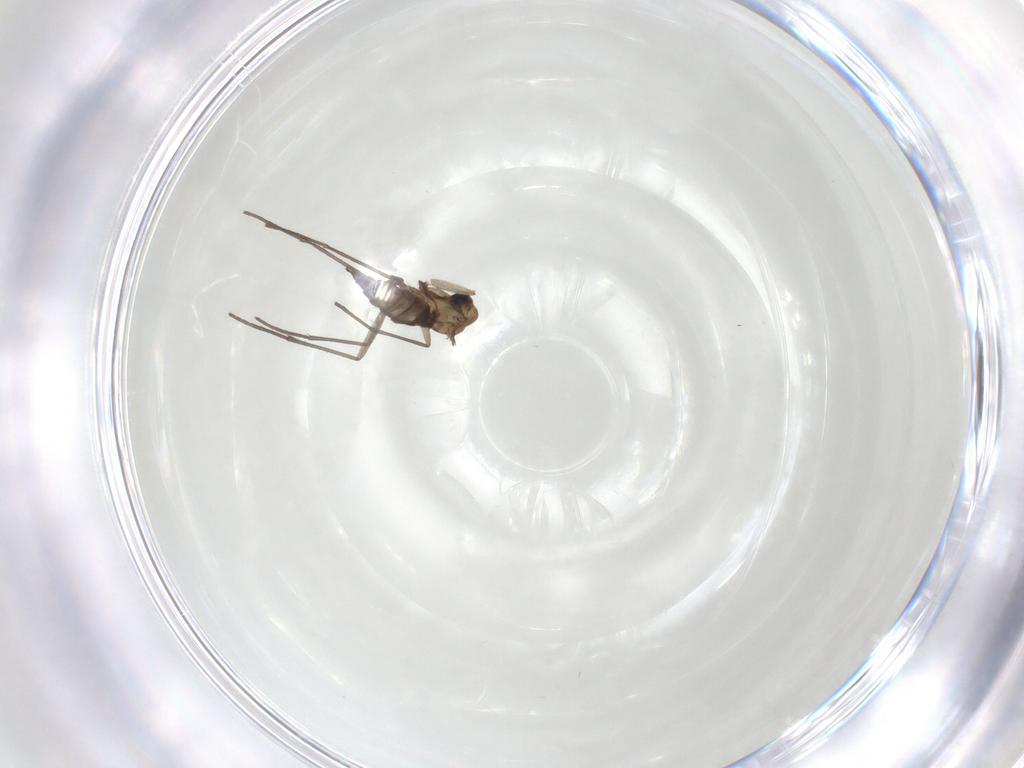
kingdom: Animalia
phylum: Arthropoda
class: Insecta
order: Diptera
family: Sciaridae
